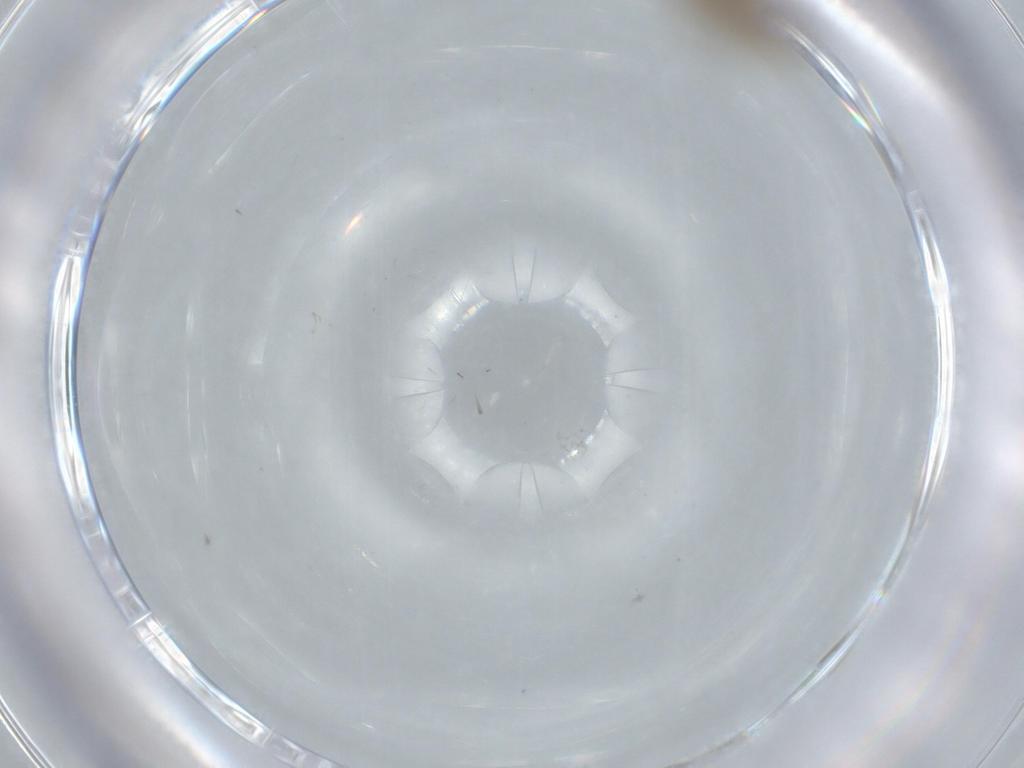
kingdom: Animalia
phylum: Arthropoda
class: Insecta
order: Diptera
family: Psychodidae
